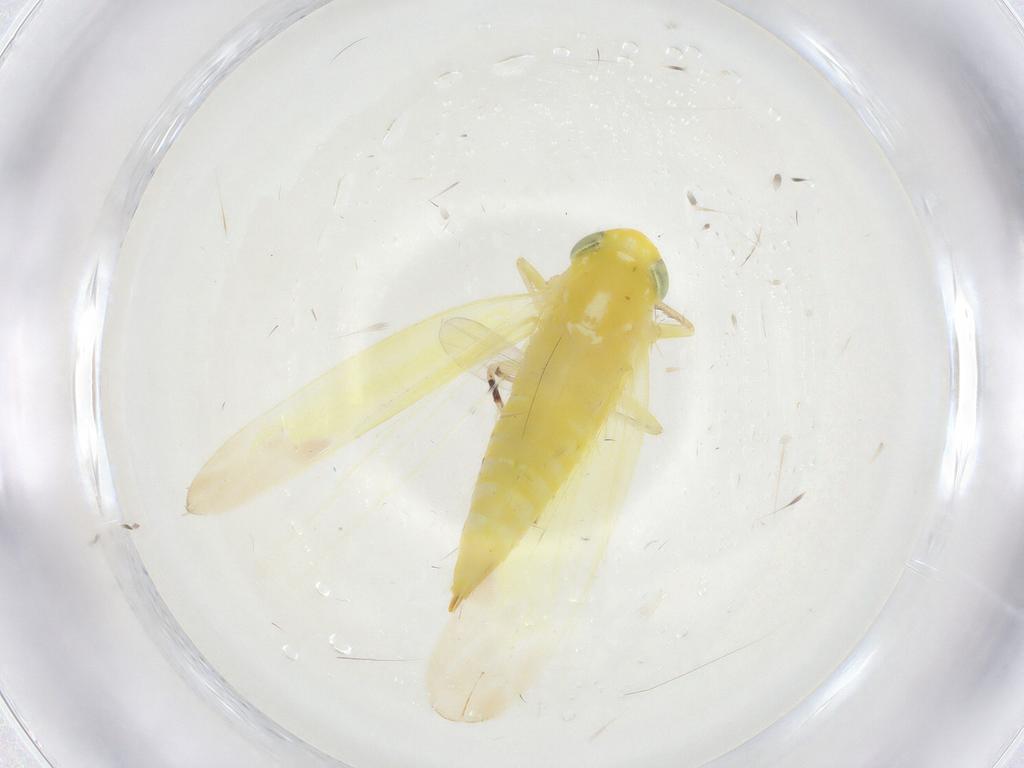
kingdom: Animalia
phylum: Arthropoda
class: Insecta
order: Hemiptera
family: Cicadellidae
